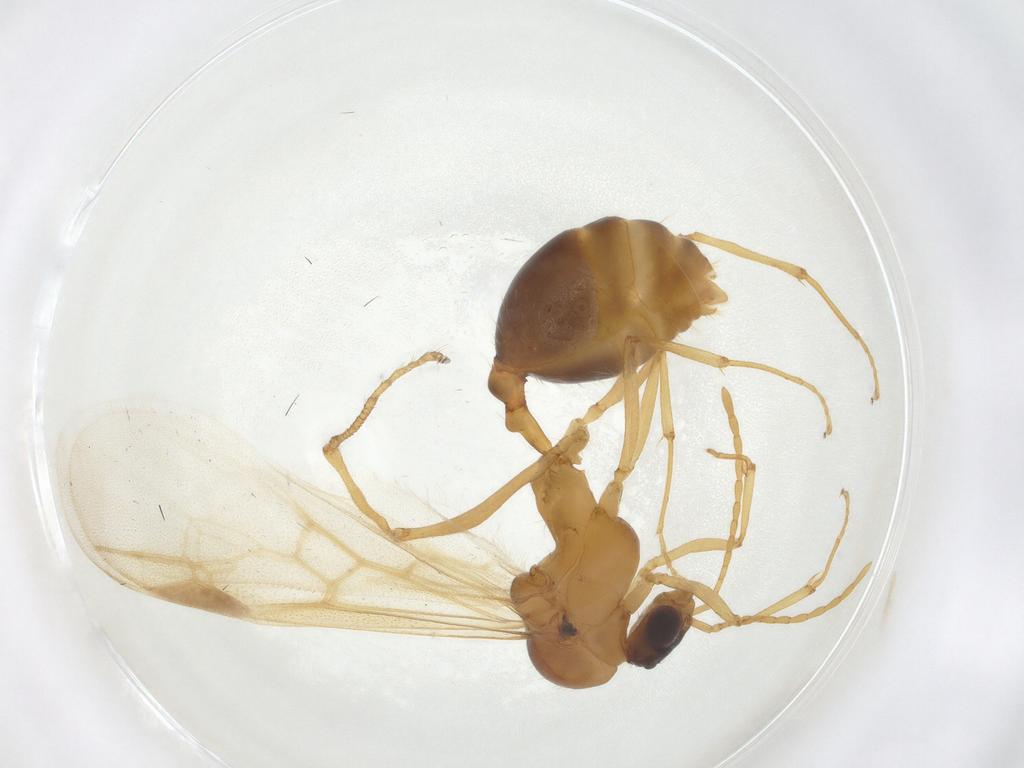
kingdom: Animalia
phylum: Arthropoda
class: Insecta
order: Hymenoptera
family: Formicidae
